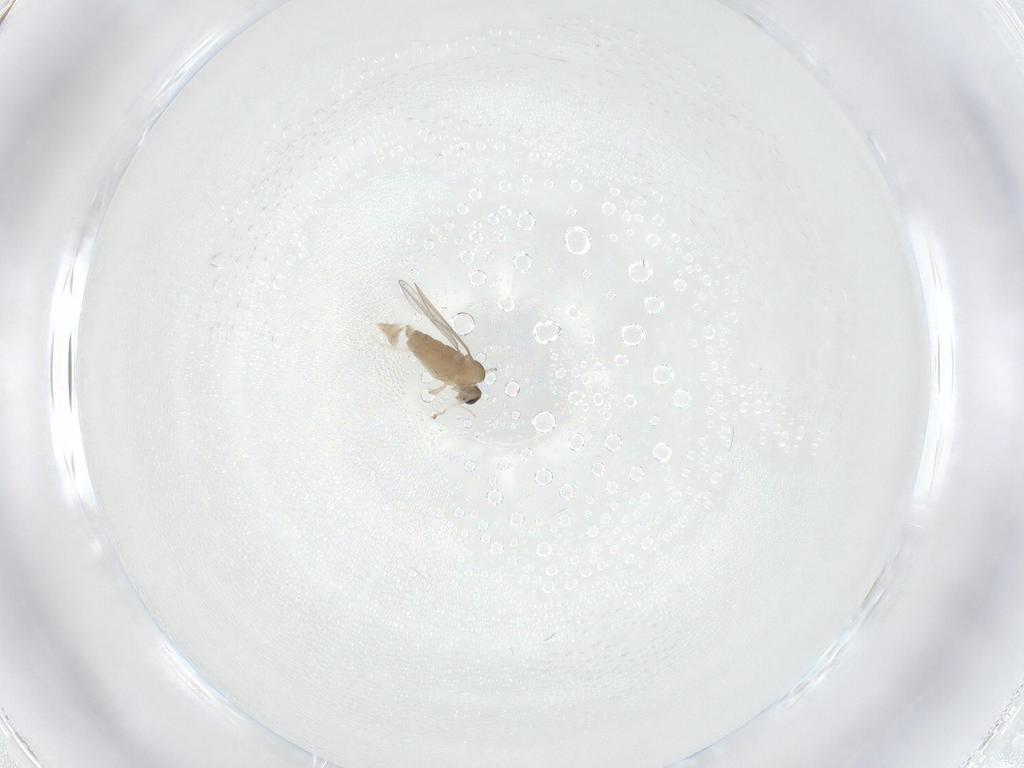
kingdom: Animalia
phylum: Arthropoda
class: Insecta
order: Diptera
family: Cecidomyiidae
